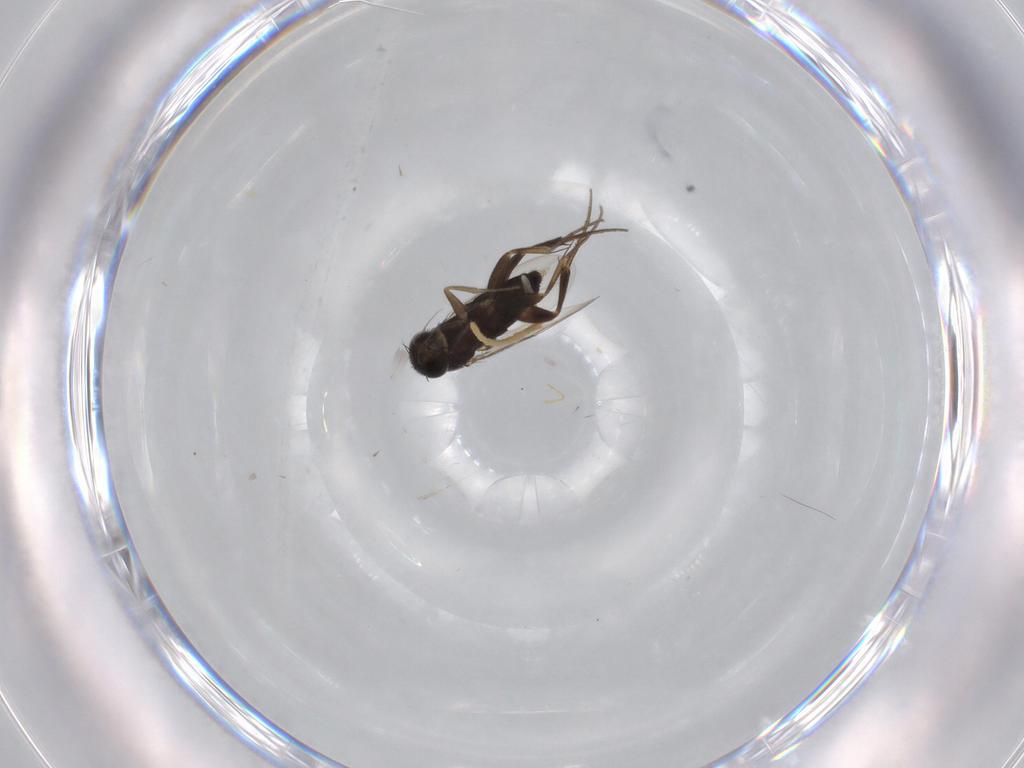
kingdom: Animalia
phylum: Arthropoda
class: Insecta
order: Diptera
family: Phoridae
